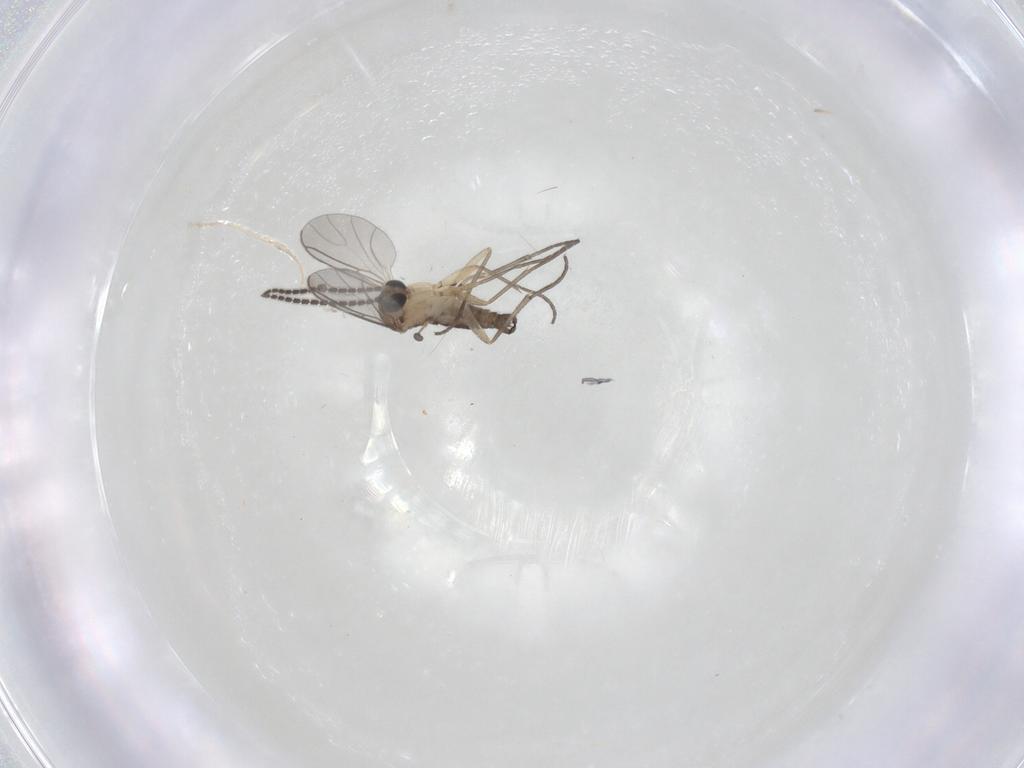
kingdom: Animalia
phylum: Arthropoda
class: Insecta
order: Diptera
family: Sciaridae
